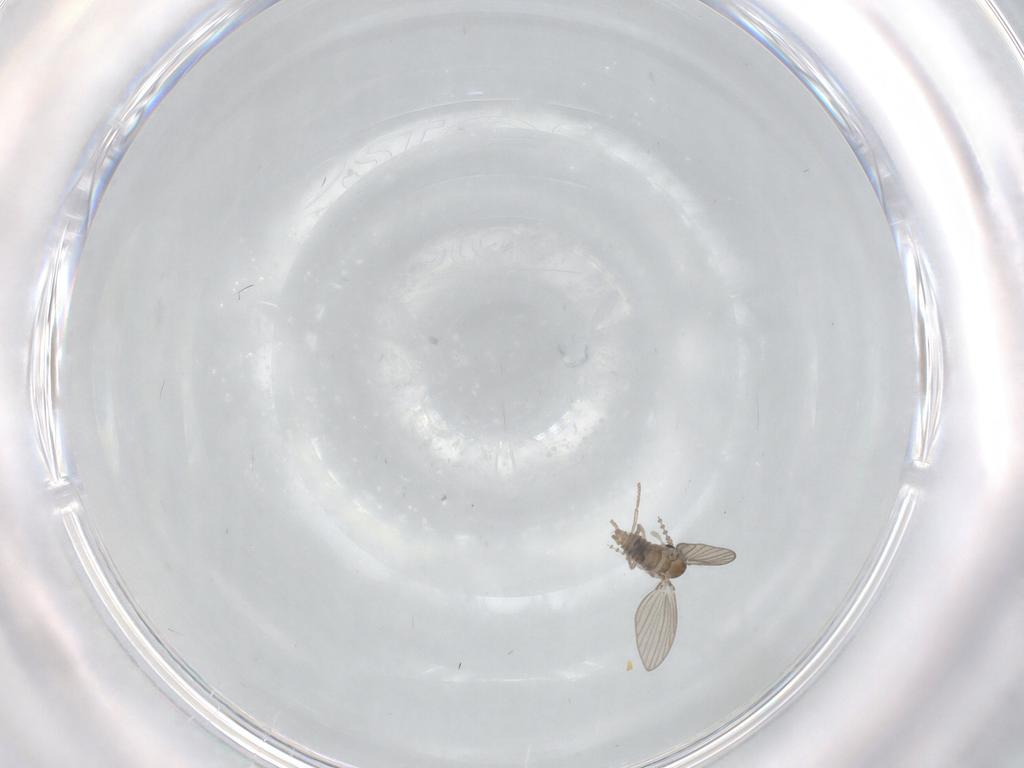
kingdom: Animalia
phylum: Arthropoda
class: Insecta
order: Diptera
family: Psychodidae
